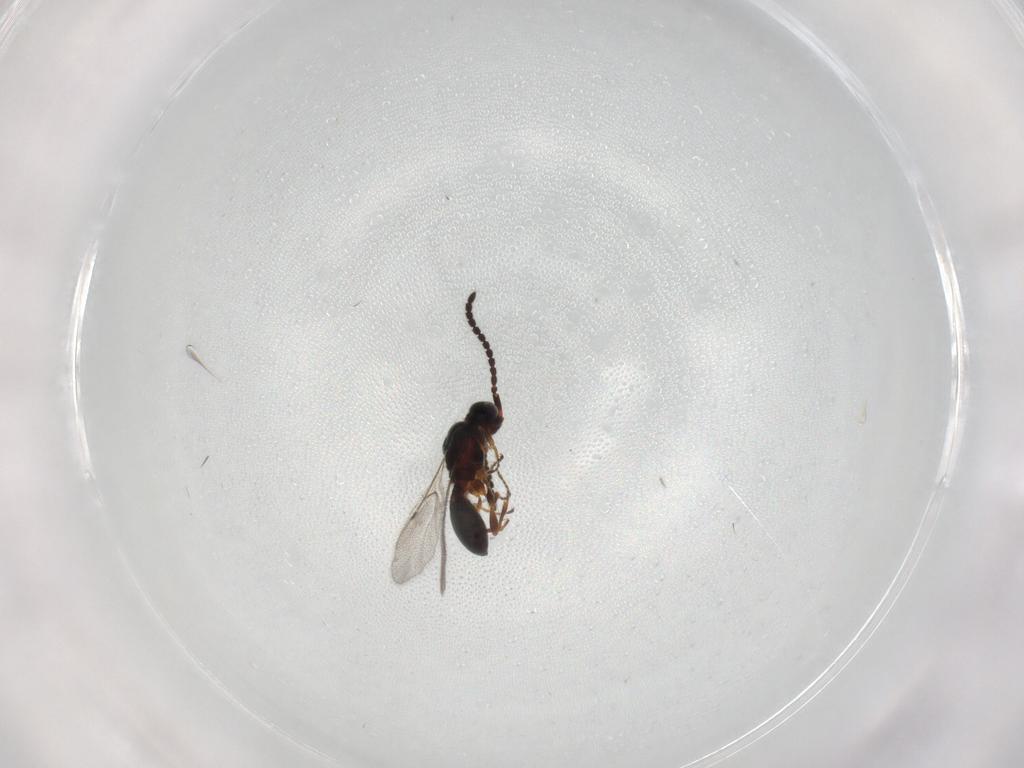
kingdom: Animalia
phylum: Arthropoda
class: Insecta
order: Hymenoptera
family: Diapriidae
